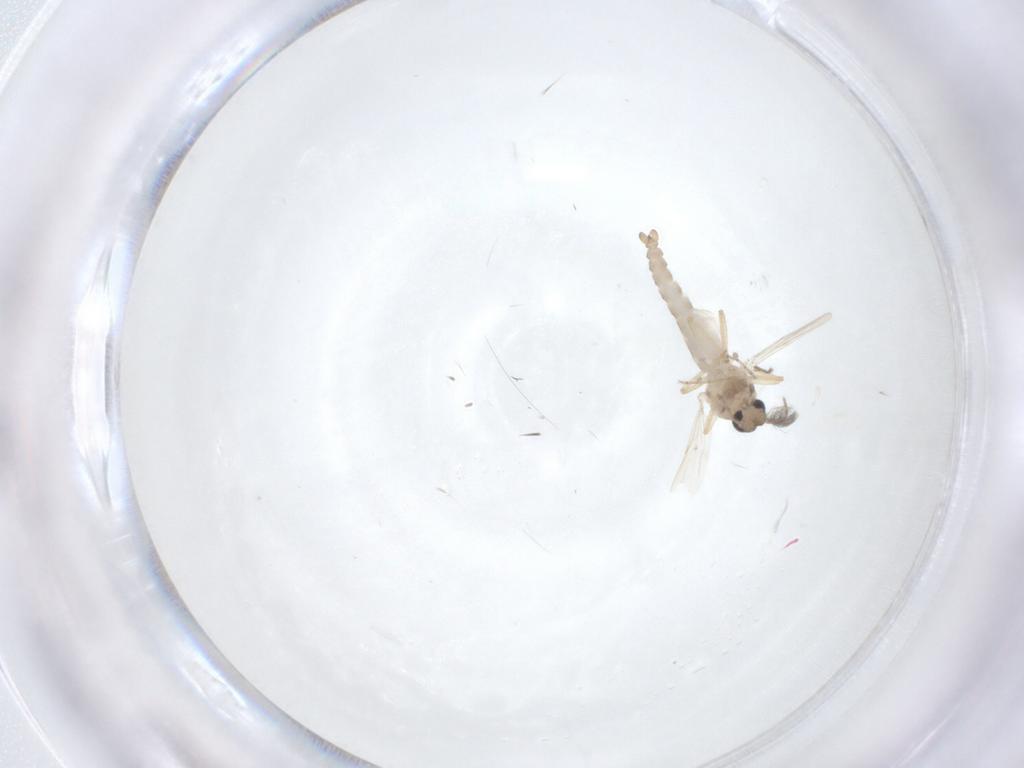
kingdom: Animalia
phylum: Arthropoda
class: Insecta
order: Diptera
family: Ceratopogonidae
